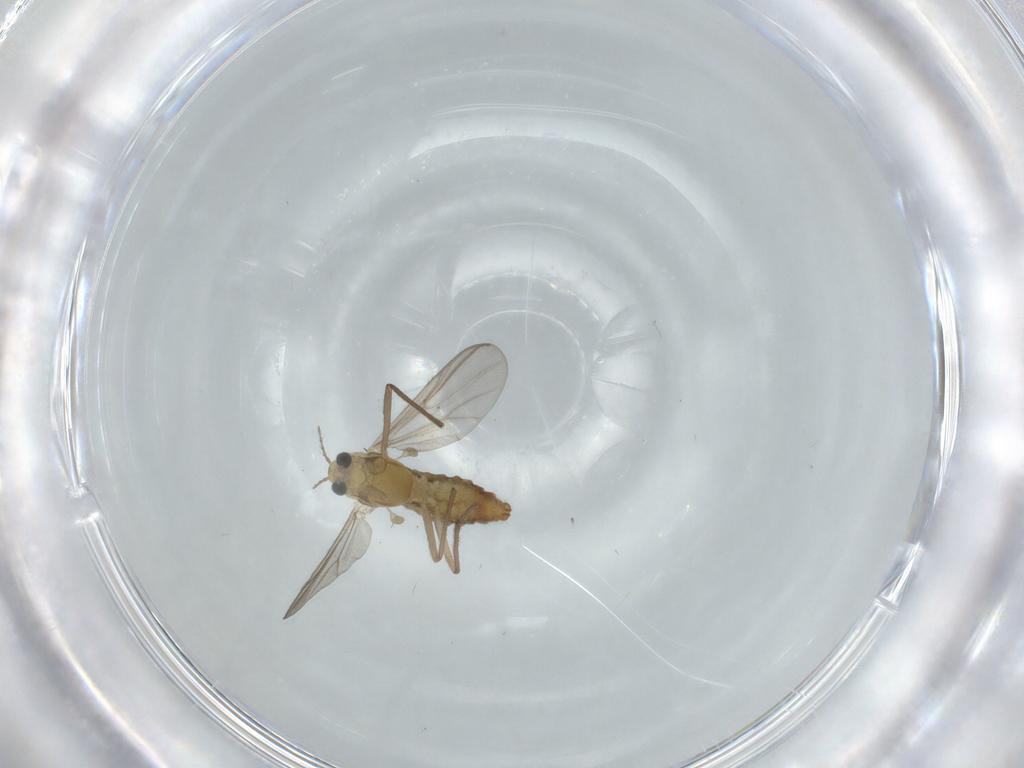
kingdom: Animalia
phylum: Arthropoda
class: Insecta
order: Diptera
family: Chironomidae
